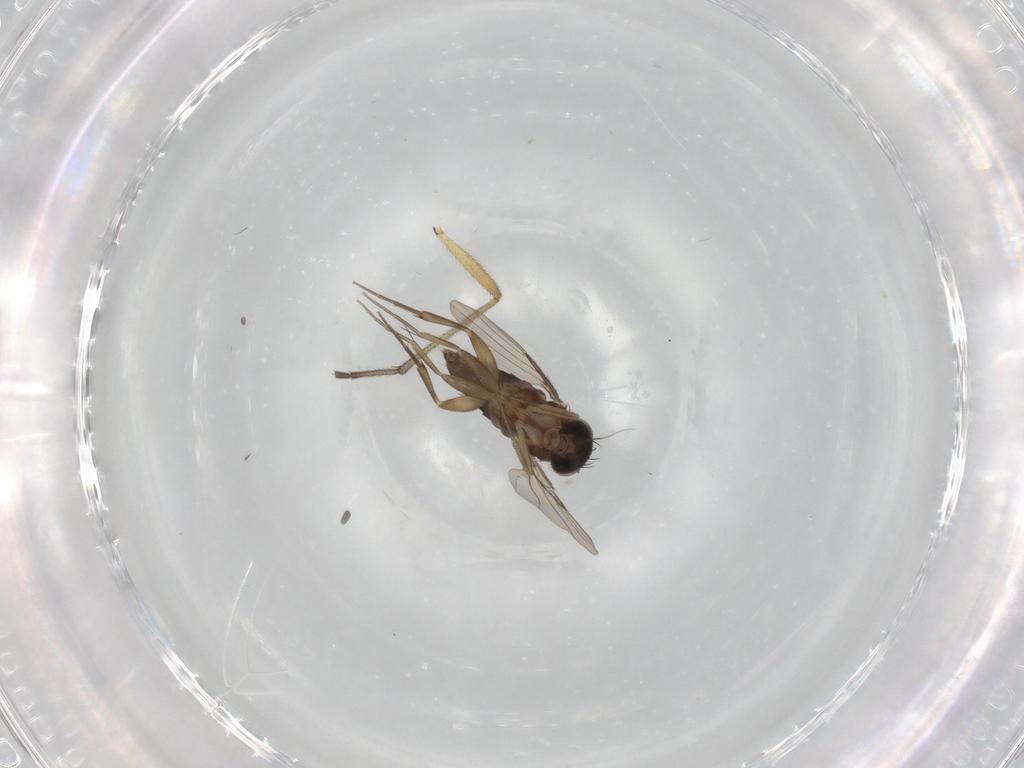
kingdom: Animalia
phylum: Arthropoda
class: Insecta
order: Diptera
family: Phoridae
